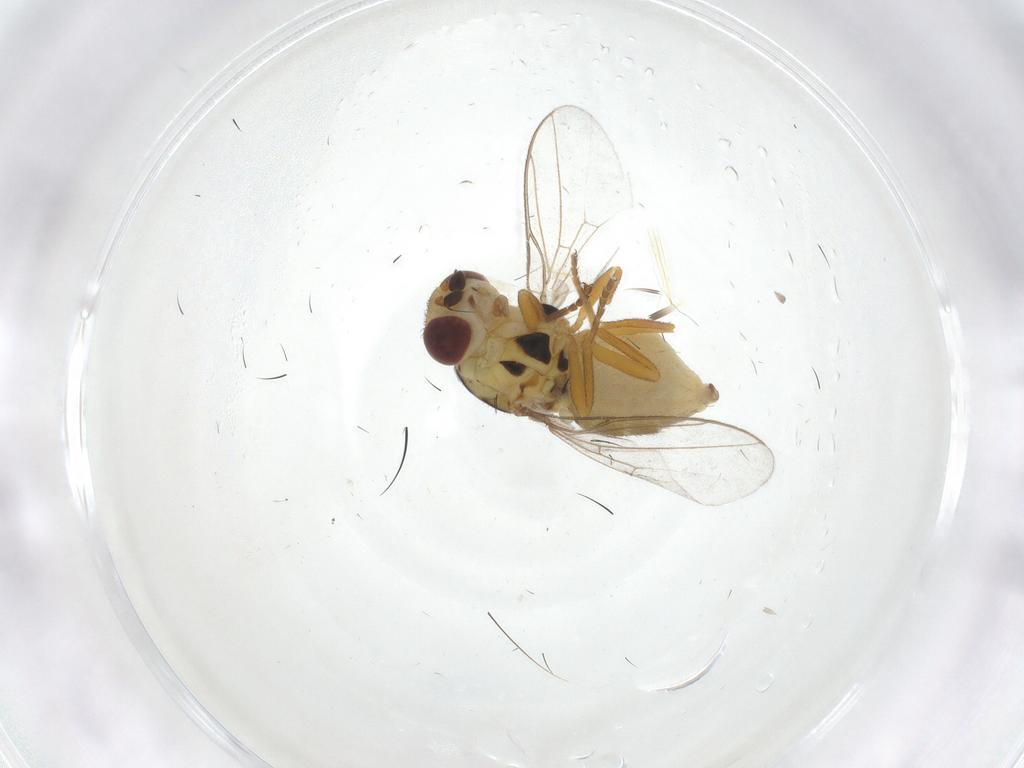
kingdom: Animalia
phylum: Arthropoda
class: Insecta
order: Diptera
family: Chloropidae
